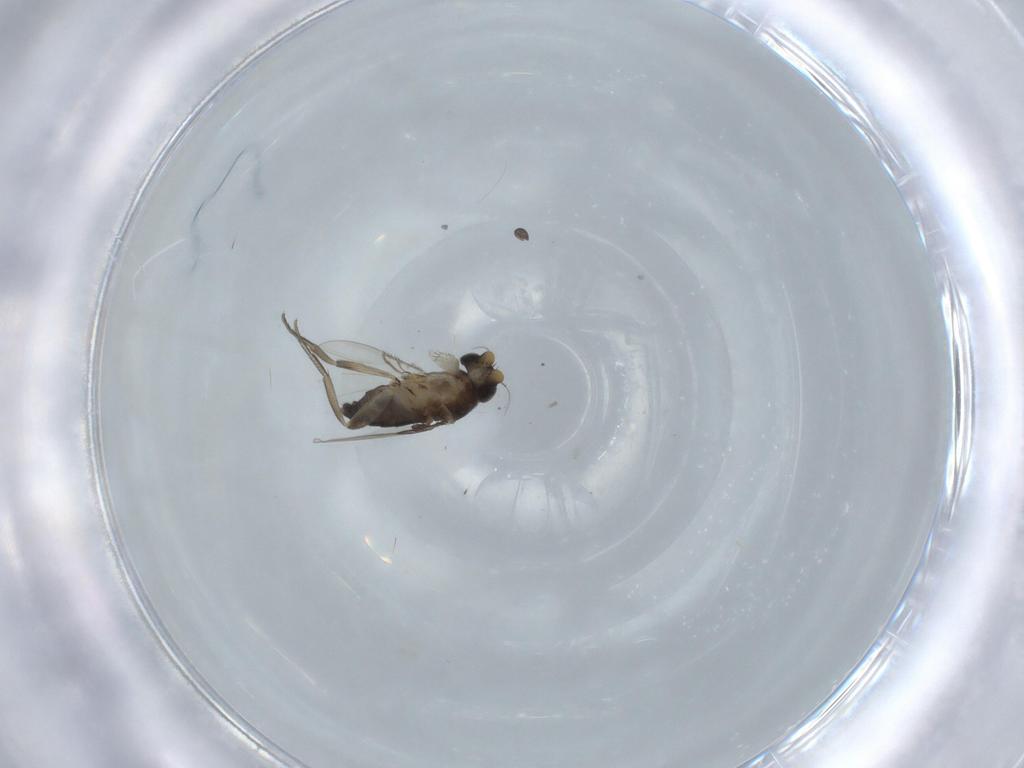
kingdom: Animalia
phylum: Arthropoda
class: Insecta
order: Diptera
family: Phoridae
